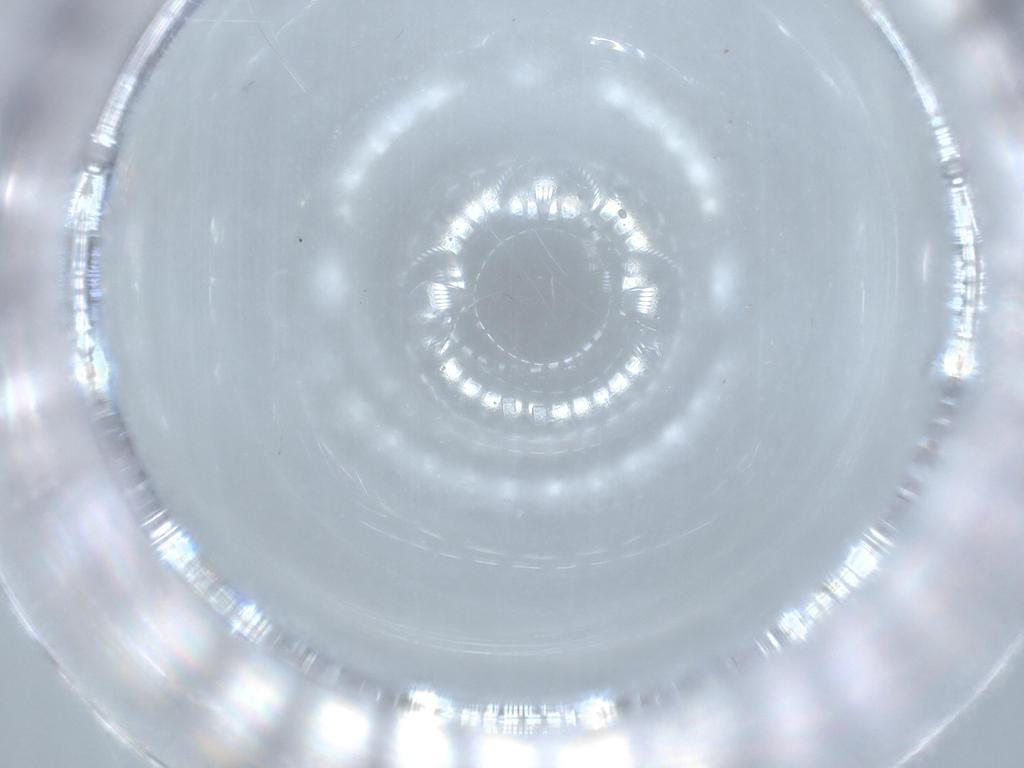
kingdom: Animalia
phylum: Arthropoda
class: Insecta
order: Hymenoptera
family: Trichogrammatidae
